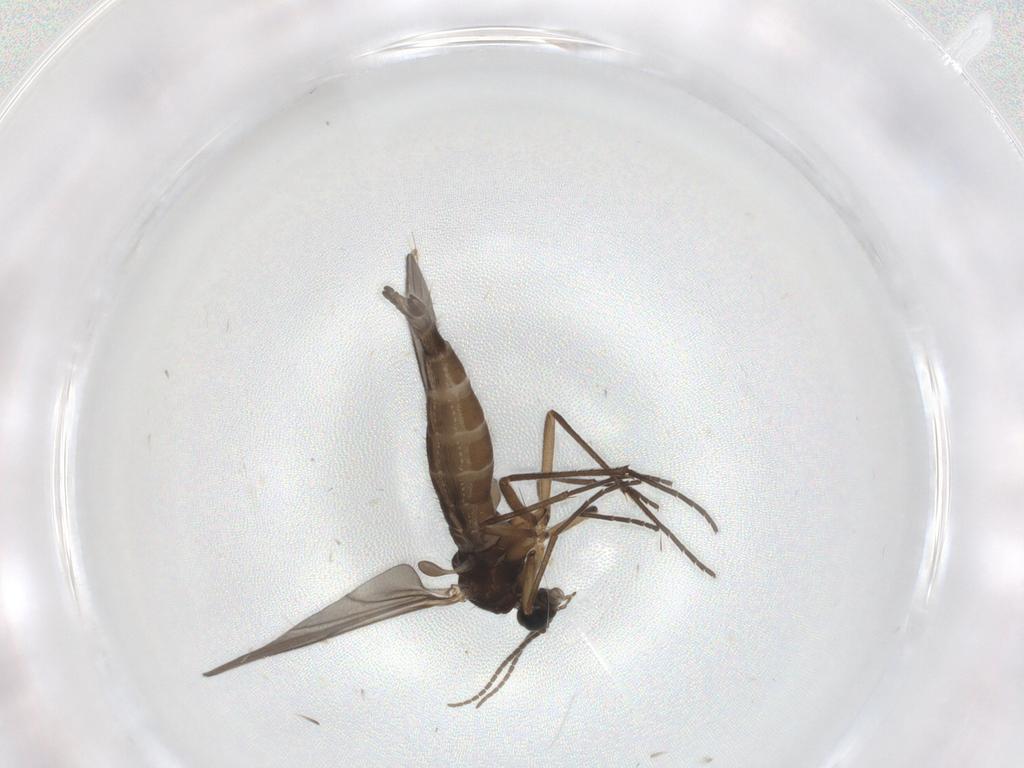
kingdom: Animalia
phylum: Arthropoda
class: Insecta
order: Diptera
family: Sciaridae
